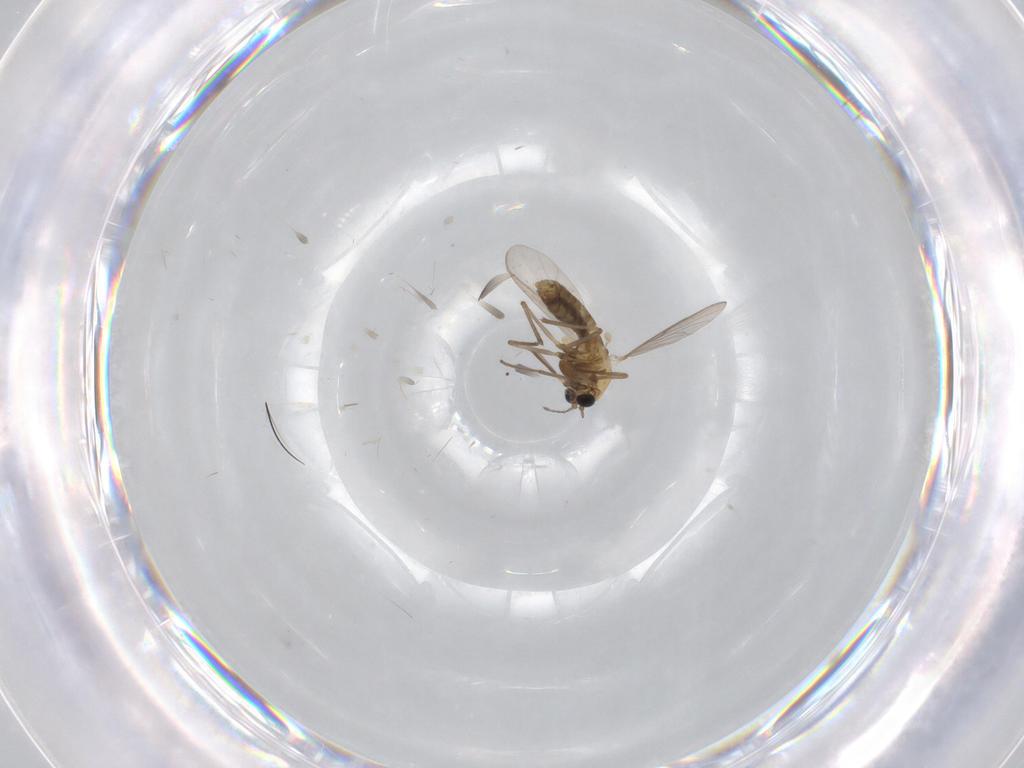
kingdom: Animalia
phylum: Arthropoda
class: Insecta
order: Diptera
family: Chironomidae
